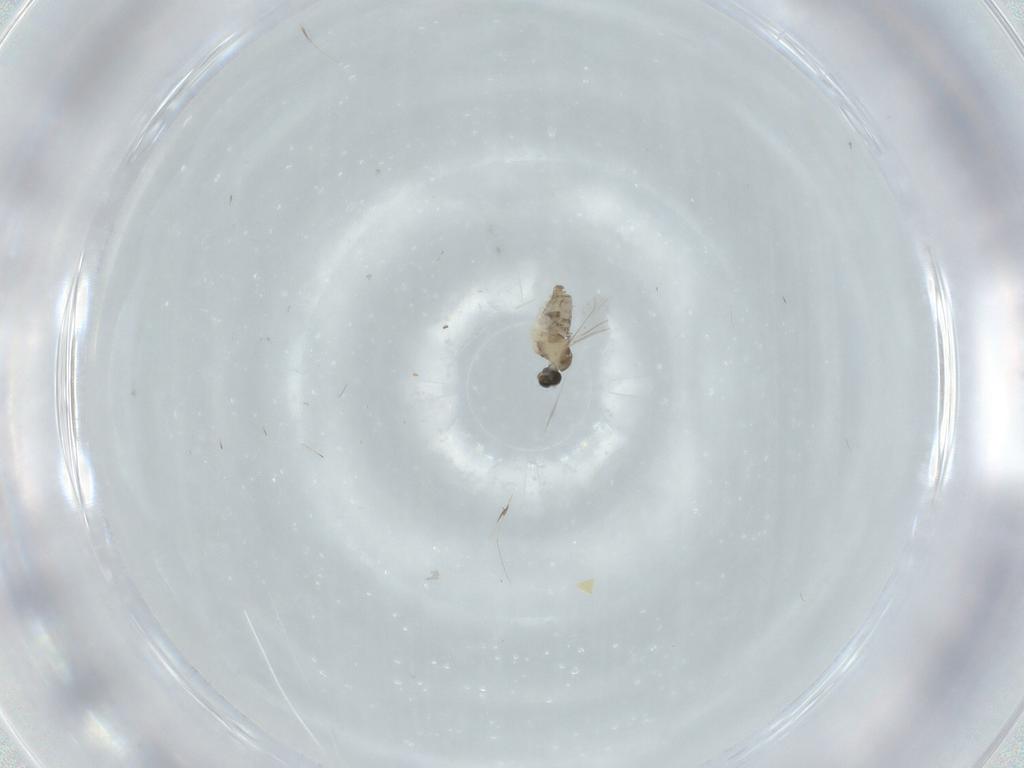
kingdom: Animalia
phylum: Arthropoda
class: Insecta
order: Diptera
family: Cecidomyiidae
